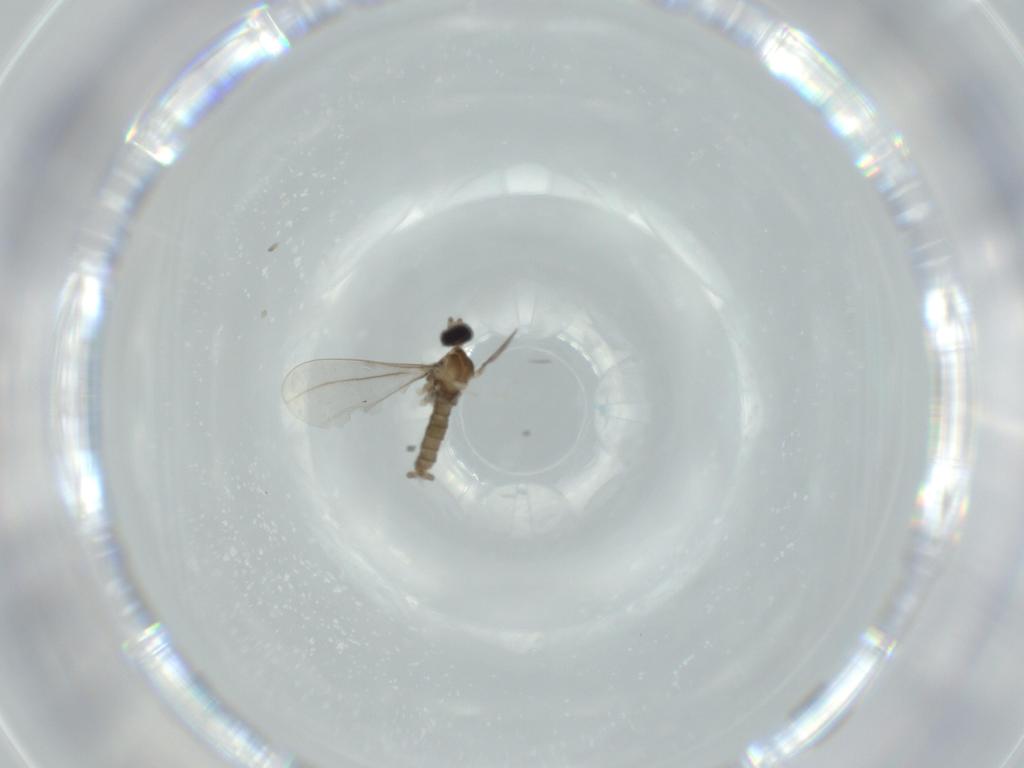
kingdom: Animalia
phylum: Arthropoda
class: Insecta
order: Diptera
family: Cecidomyiidae
